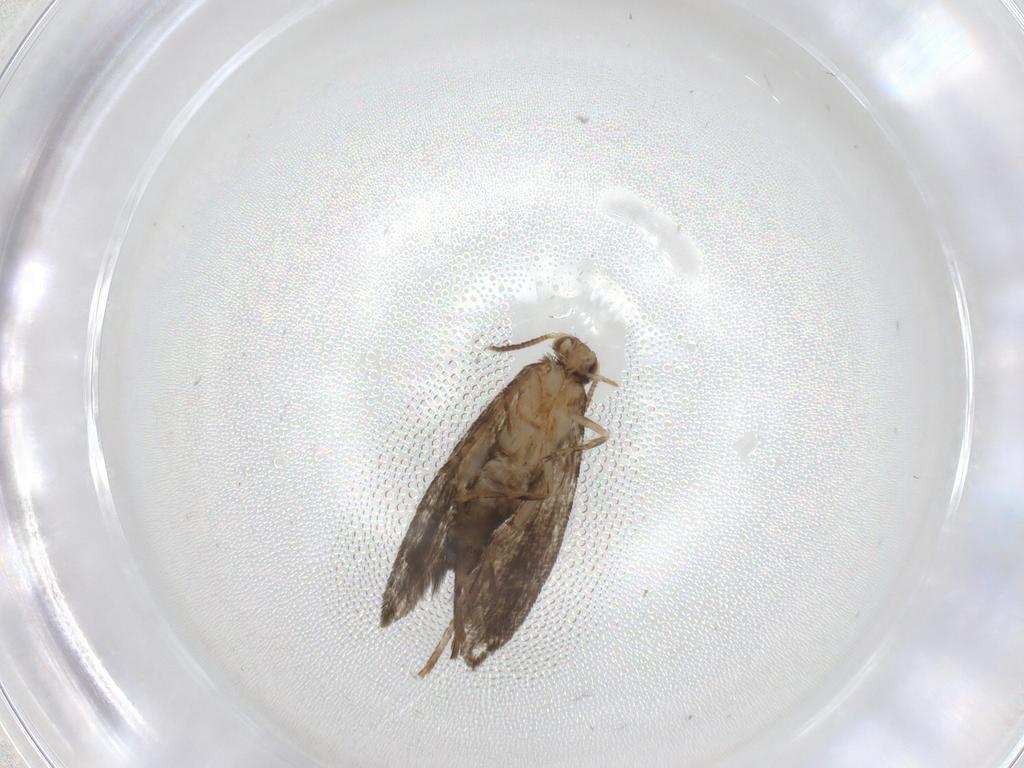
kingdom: Animalia
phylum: Arthropoda
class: Insecta
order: Lepidoptera
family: Tineidae
